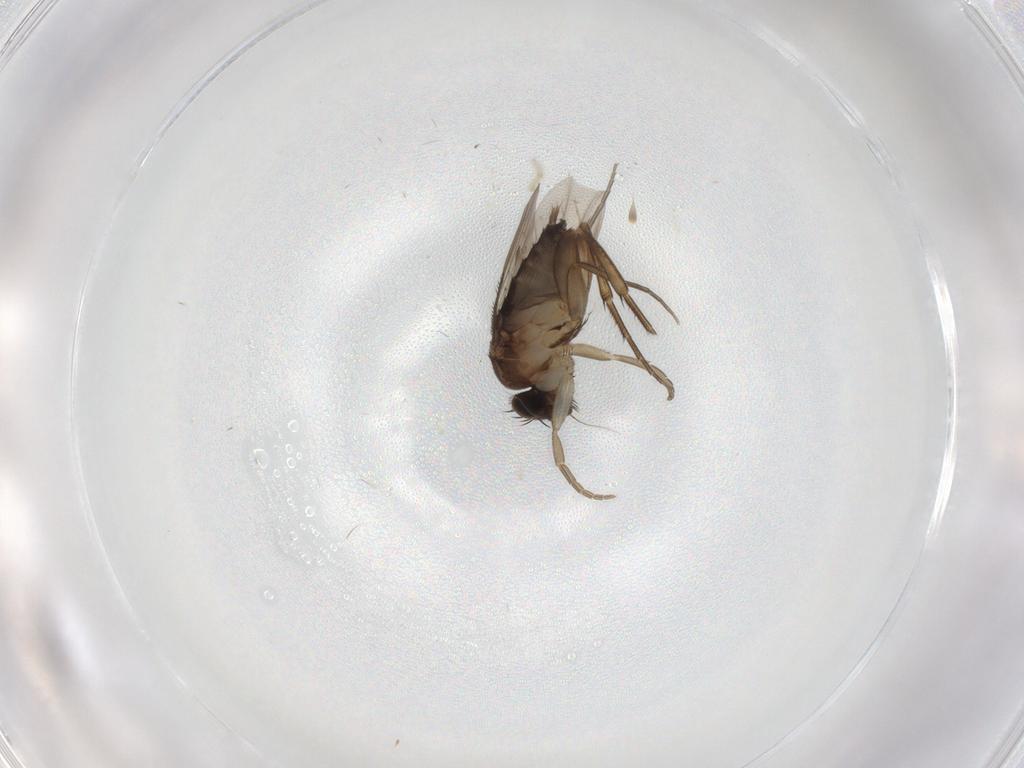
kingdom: Animalia
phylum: Arthropoda
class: Insecta
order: Diptera
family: Phoridae
